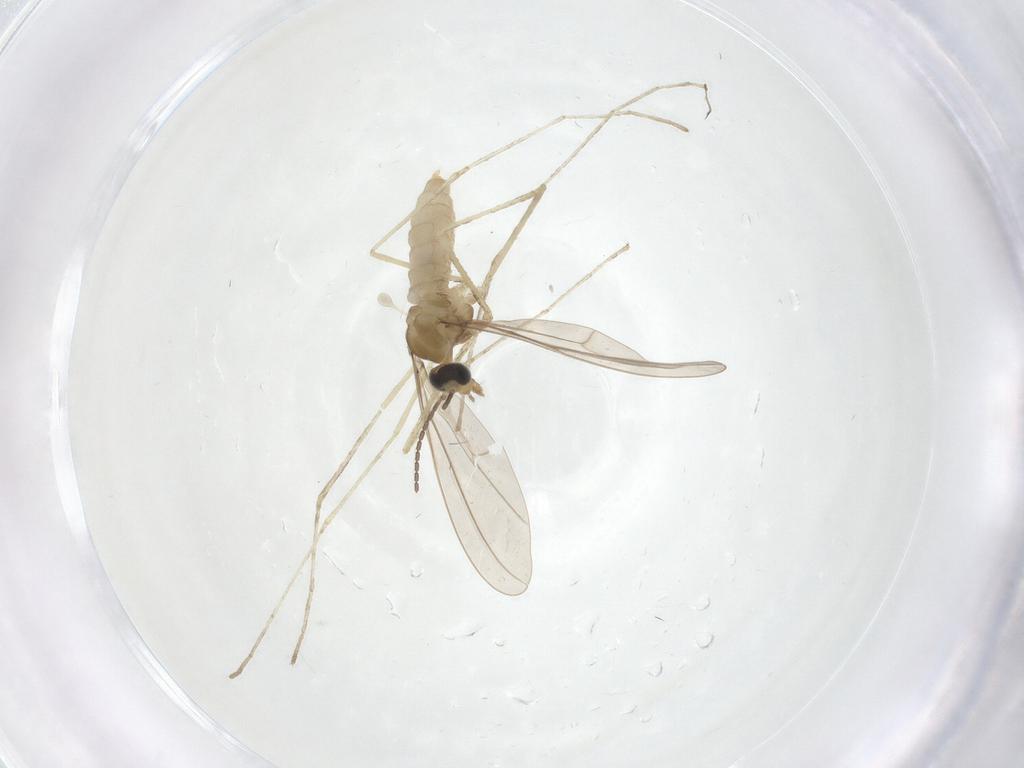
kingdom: Animalia
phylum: Arthropoda
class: Insecta
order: Diptera
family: Cecidomyiidae
